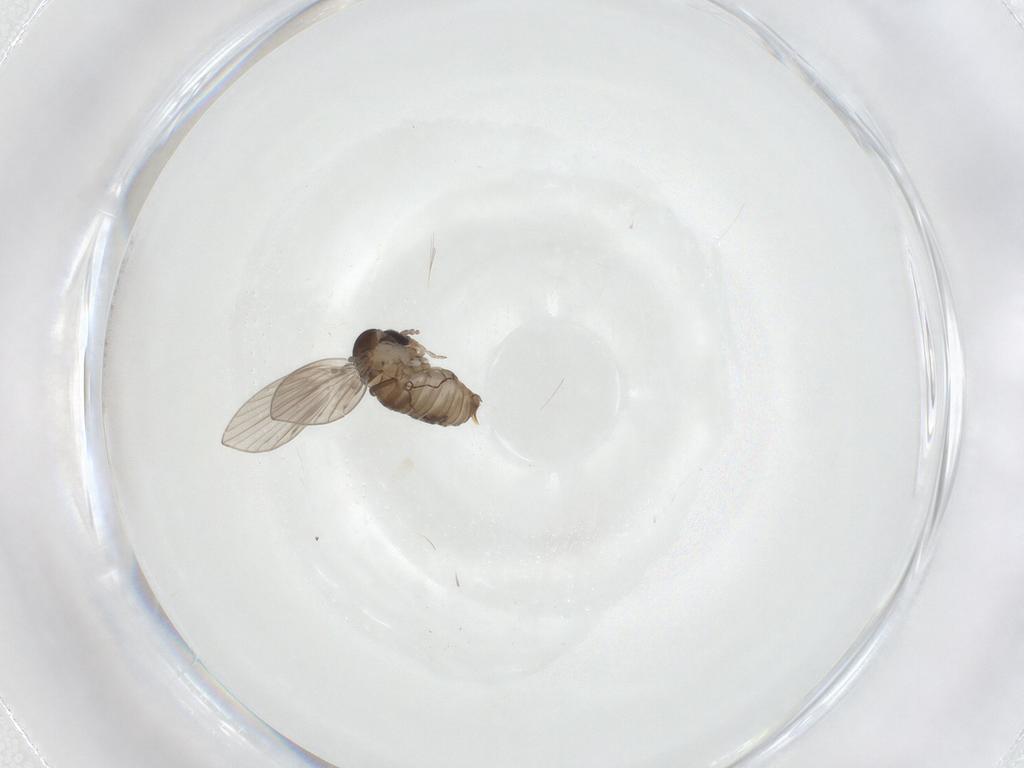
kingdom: Animalia
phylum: Arthropoda
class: Insecta
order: Diptera
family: Psychodidae
